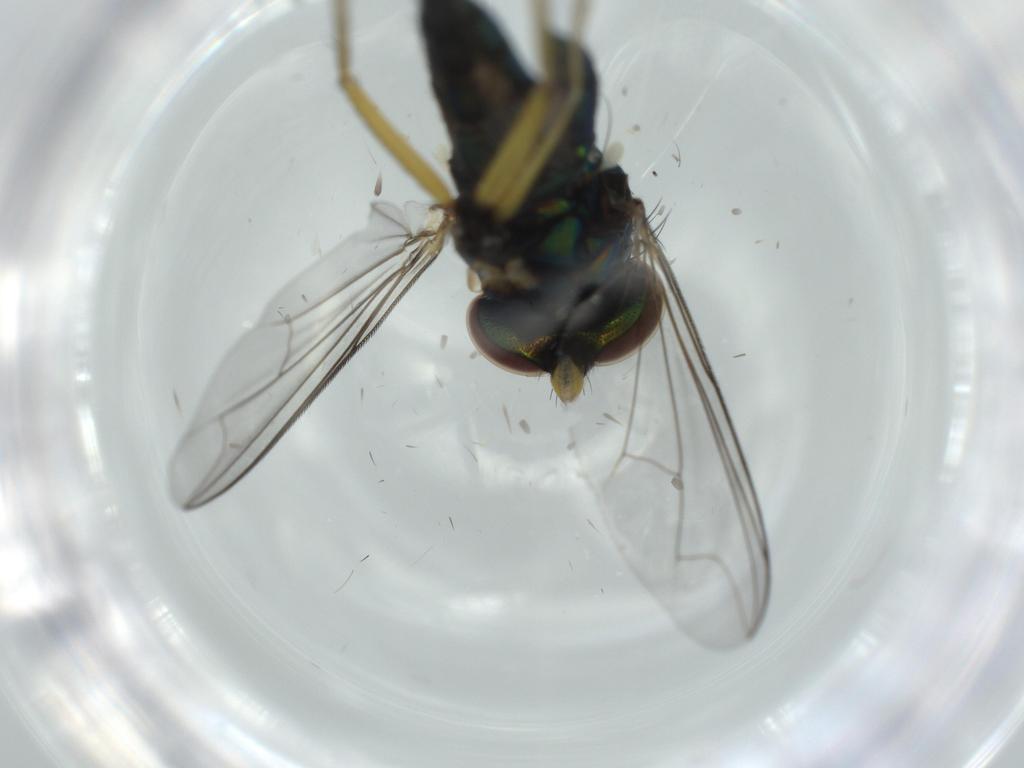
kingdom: Animalia
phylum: Arthropoda
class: Insecta
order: Diptera
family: Dolichopodidae
